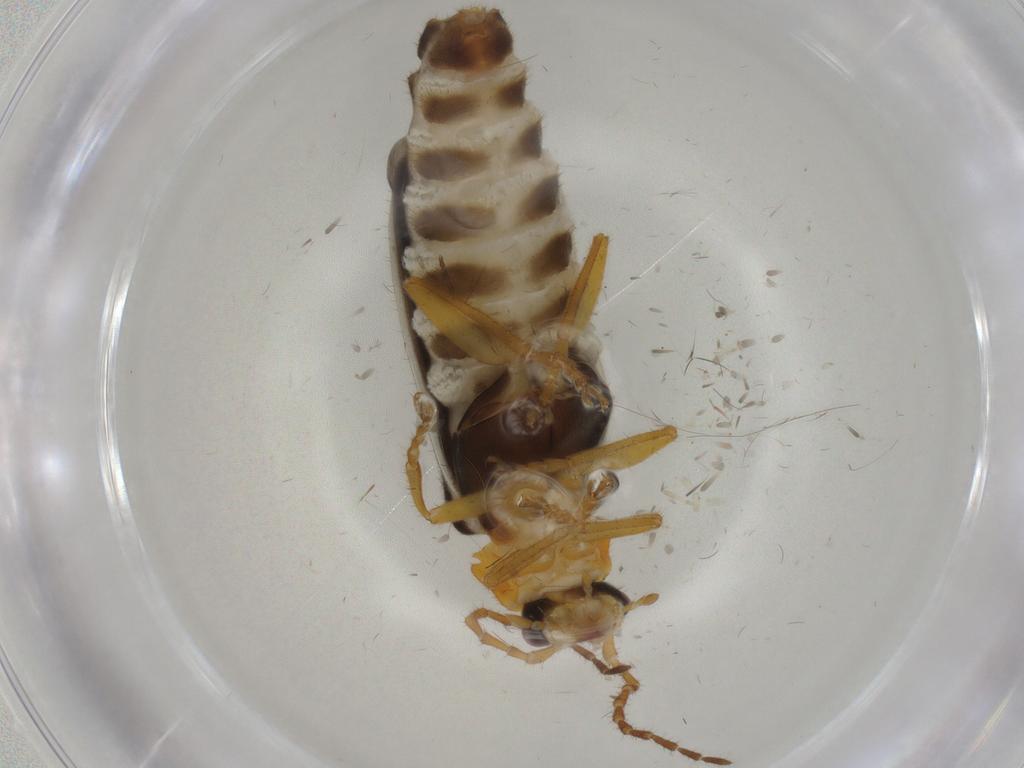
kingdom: Animalia
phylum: Arthropoda
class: Insecta
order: Coleoptera
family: Cantharidae
